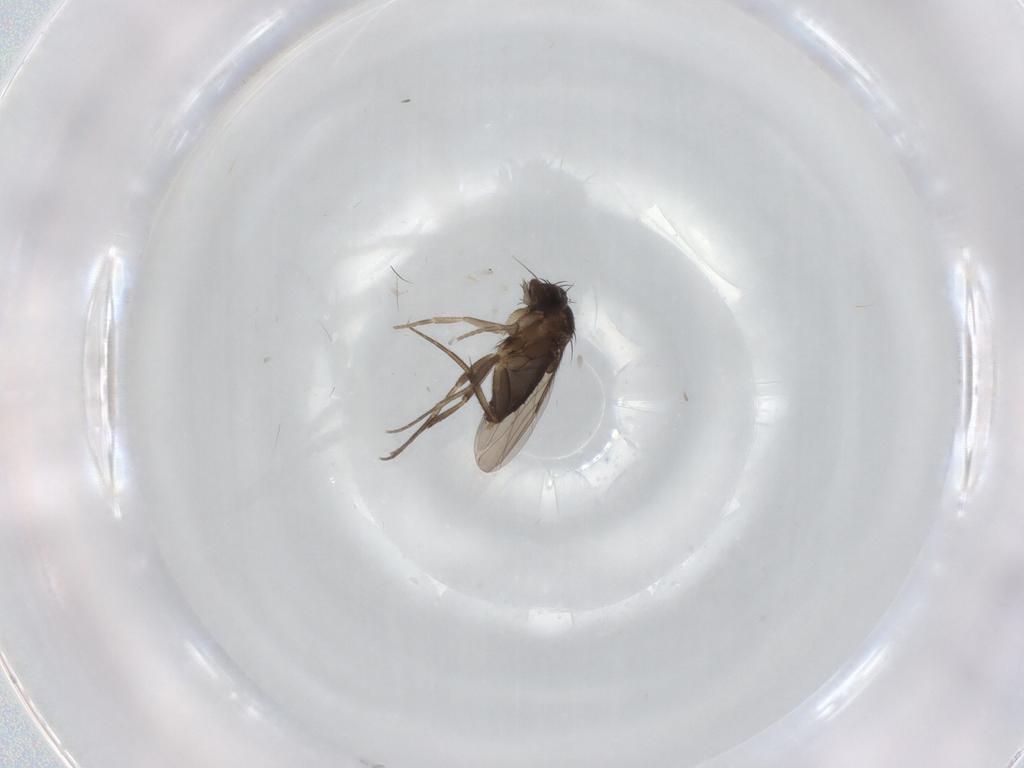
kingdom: Animalia
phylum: Arthropoda
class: Insecta
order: Diptera
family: Phoridae
